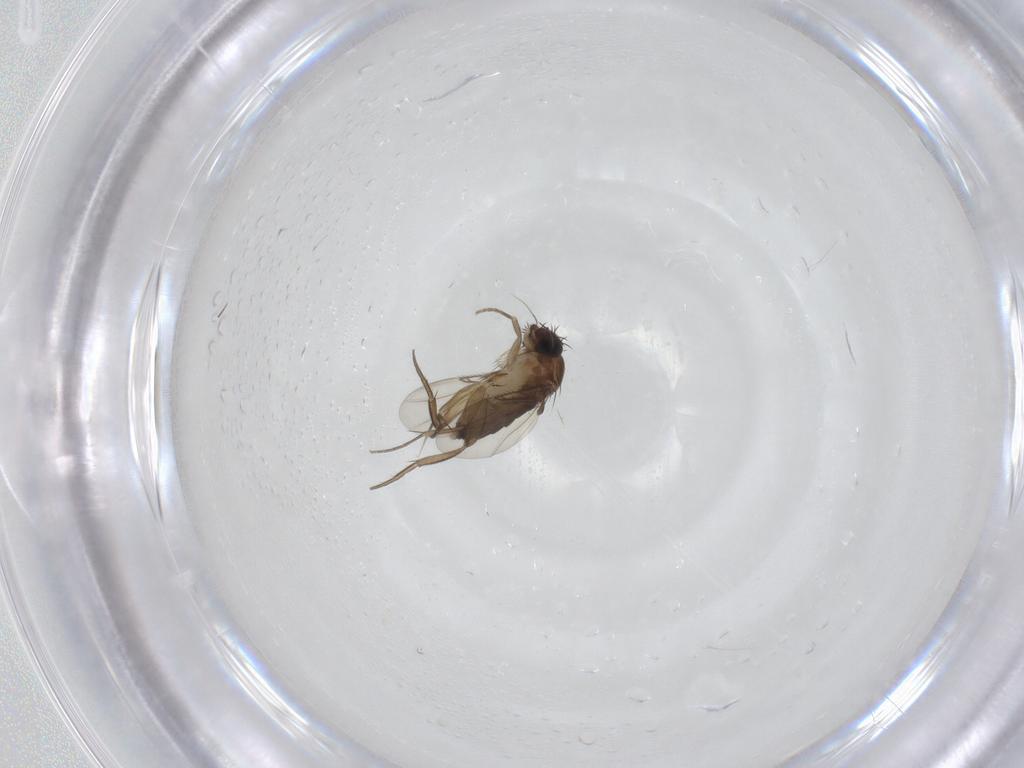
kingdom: Animalia
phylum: Arthropoda
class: Insecta
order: Diptera
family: Phoridae
